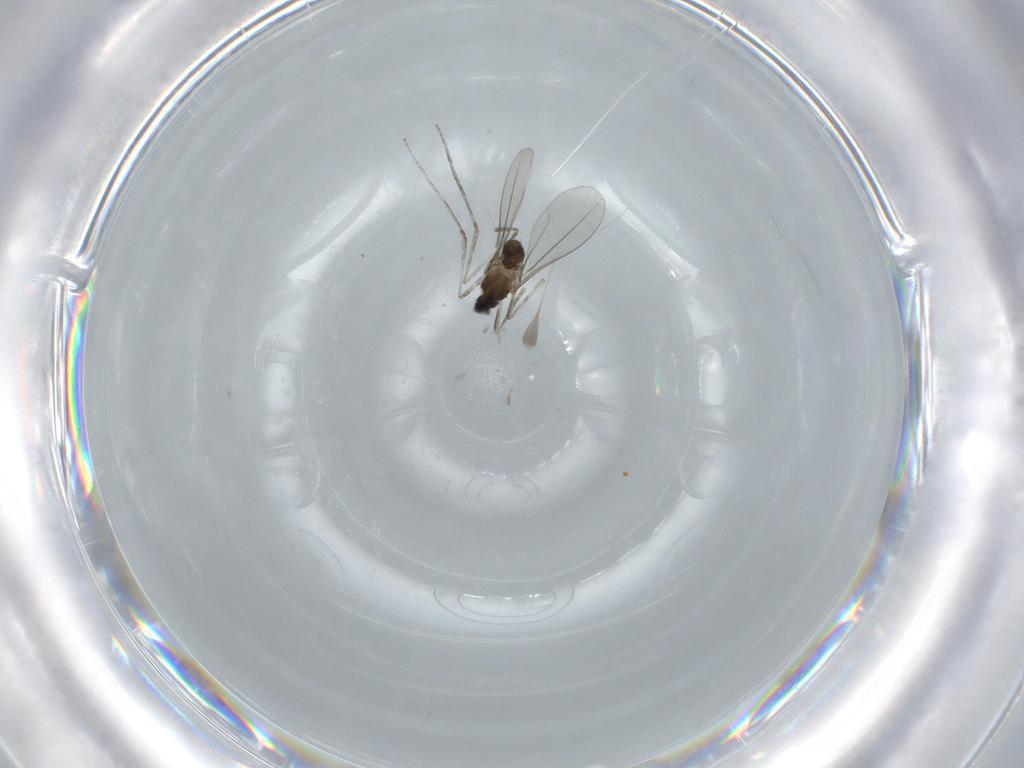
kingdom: Animalia
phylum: Arthropoda
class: Insecta
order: Diptera
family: Cecidomyiidae
